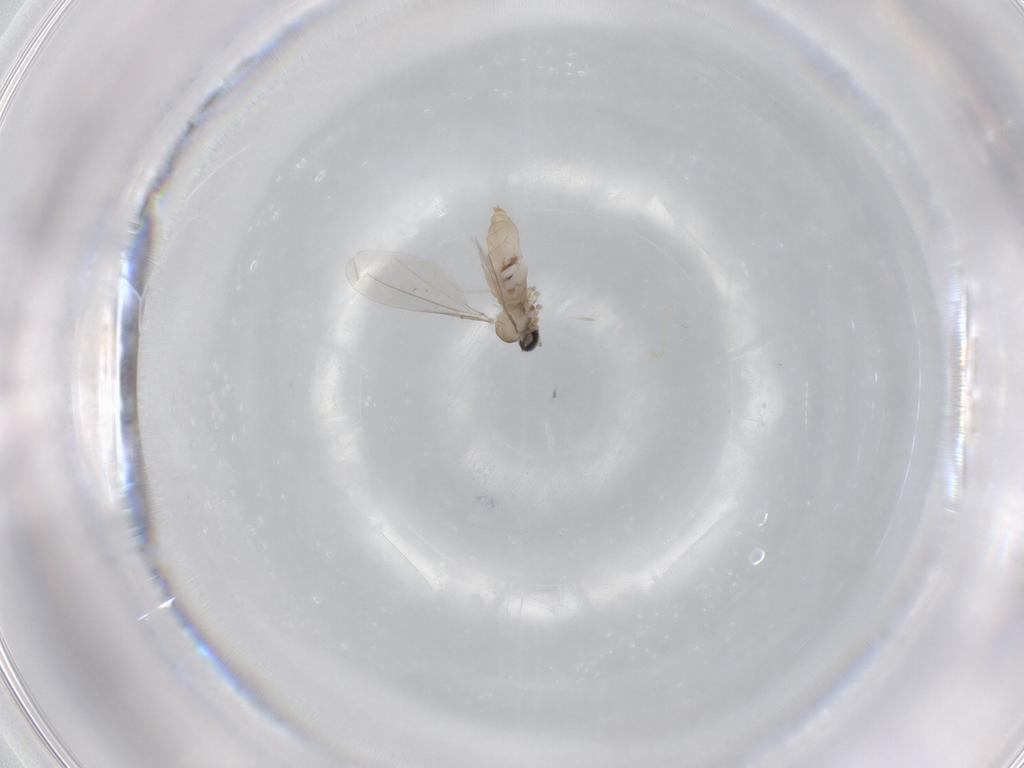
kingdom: Animalia
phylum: Arthropoda
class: Insecta
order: Diptera
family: Cecidomyiidae
